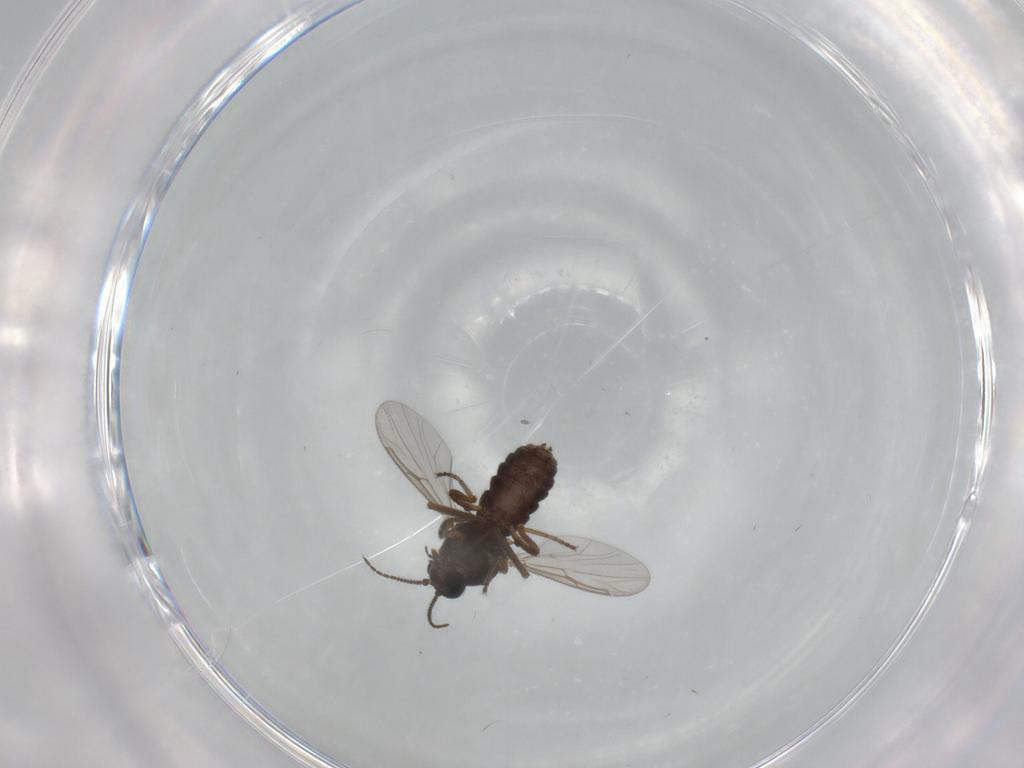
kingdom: Animalia
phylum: Arthropoda
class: Insecta
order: Diptera
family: Ceratopogonidae
